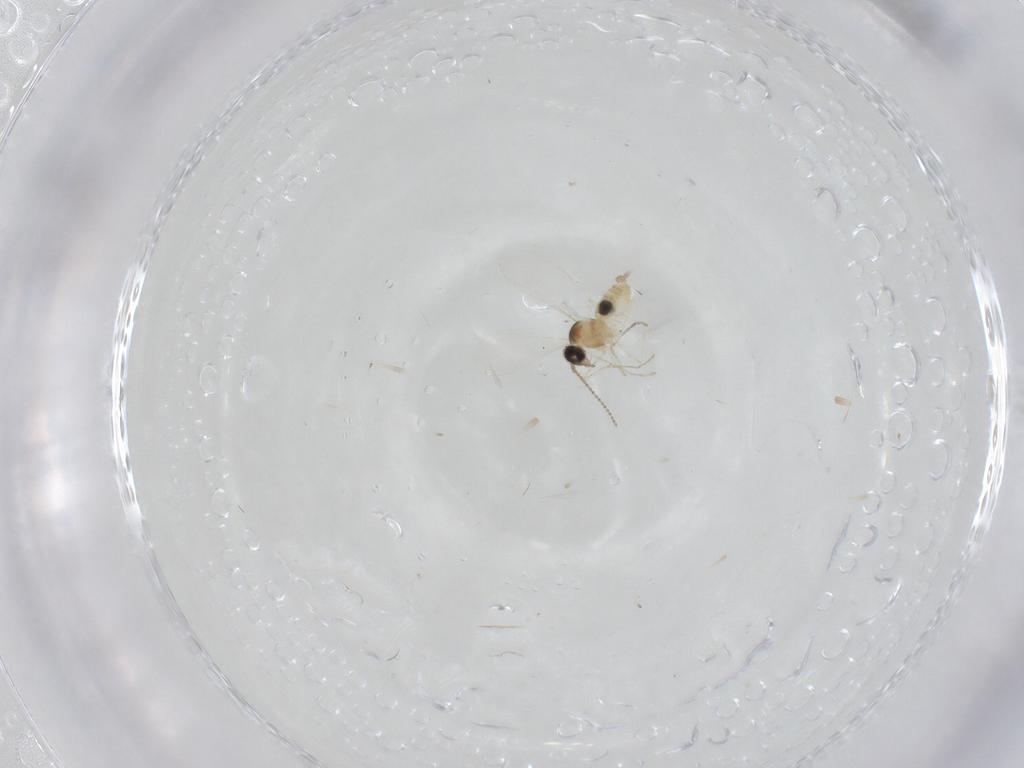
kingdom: Animalia
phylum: Arthropoda
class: Insecta
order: Diptera
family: Cecidomyiidae
